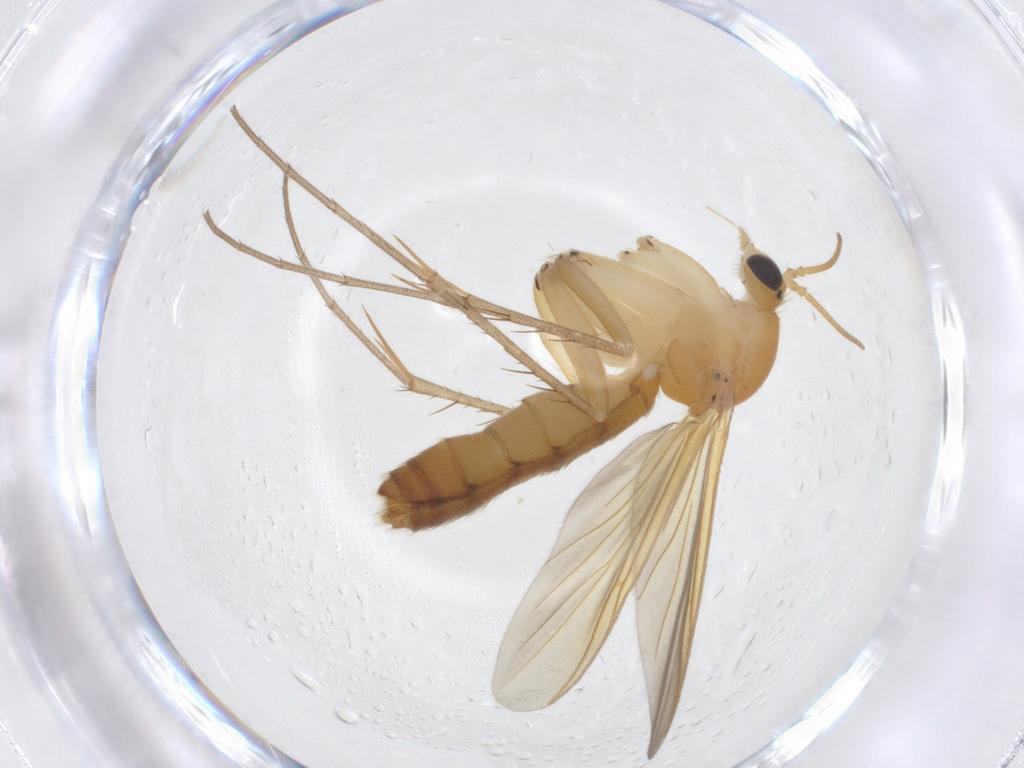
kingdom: Animalia
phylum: Arthropoda
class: Insecta
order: Diptera
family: Mycetophilidae
